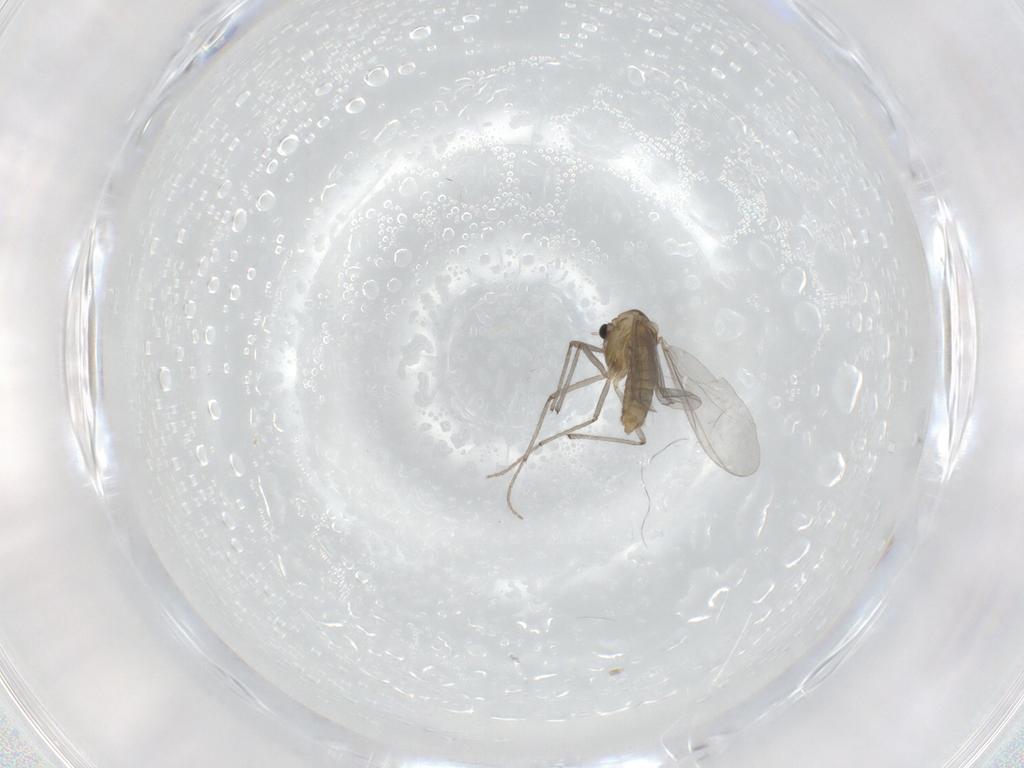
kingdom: Animalia
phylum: Arthropoda
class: Insecta
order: Diptera
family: Chironomidae
